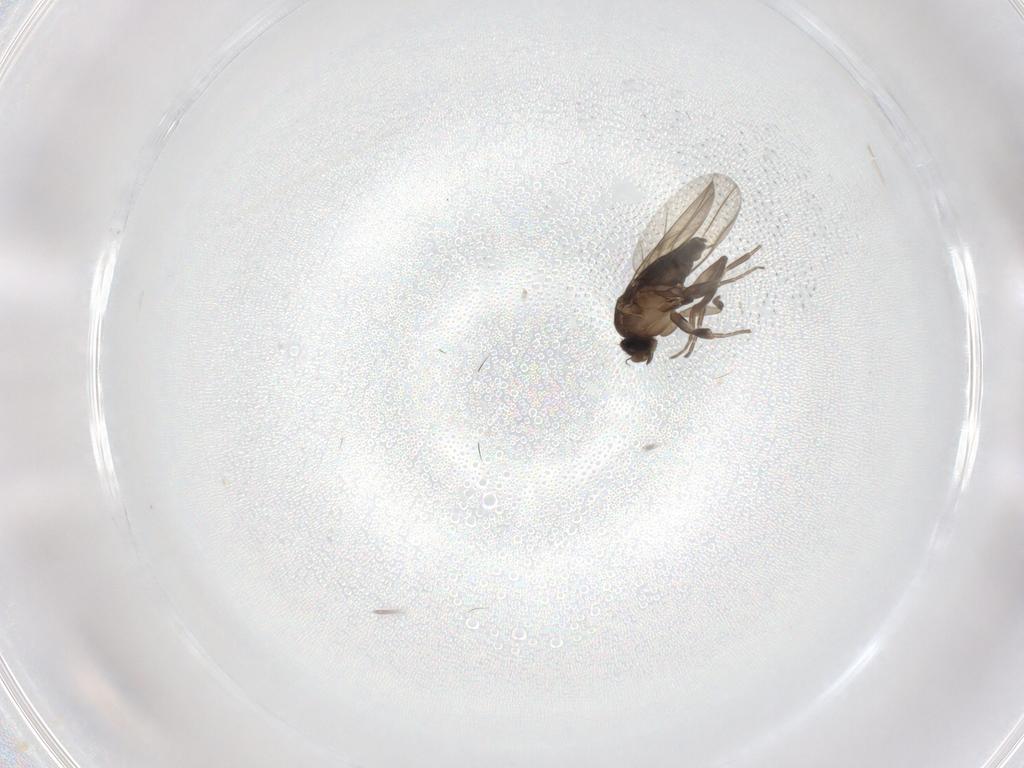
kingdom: Animalia
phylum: Arthropoda
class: Insecta
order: Diptera
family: Phoridae
